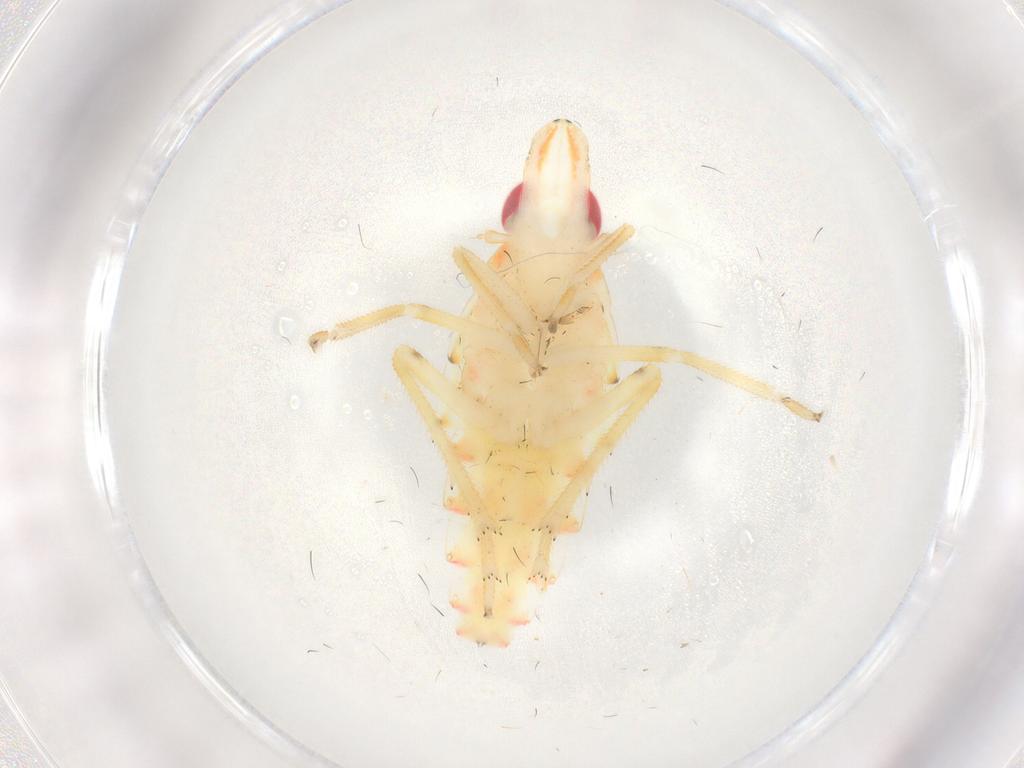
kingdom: Animalia
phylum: Arthropoda
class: Insecta
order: Hemiptera
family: Tropiduchidae
